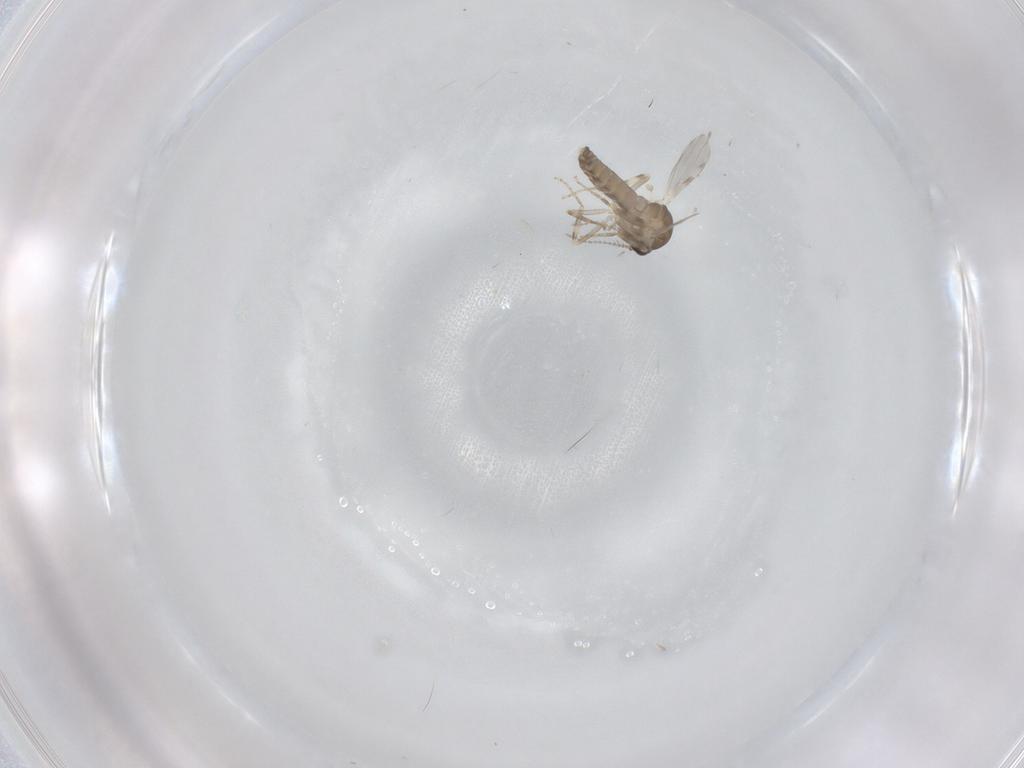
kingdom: Animalia
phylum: Arthropoda
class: Insecta
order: Diptera
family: Ceratopogonidae
